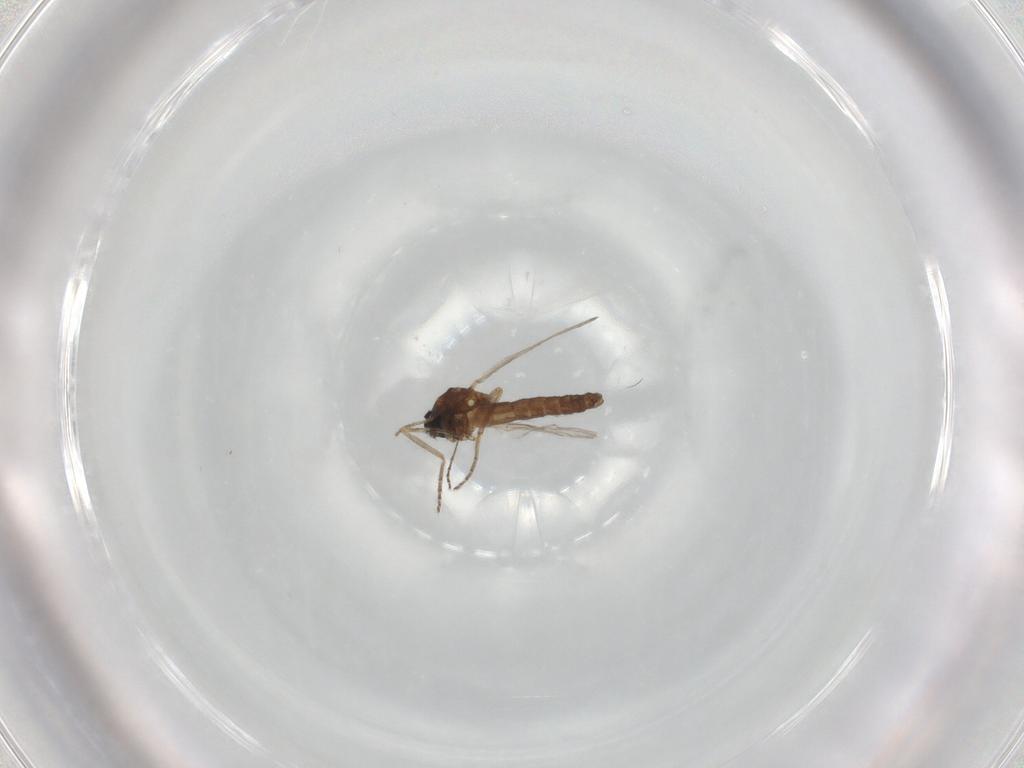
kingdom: Animalia
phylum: Arthropoda
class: Insecta
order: Diptera
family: Ceratopogonidae
